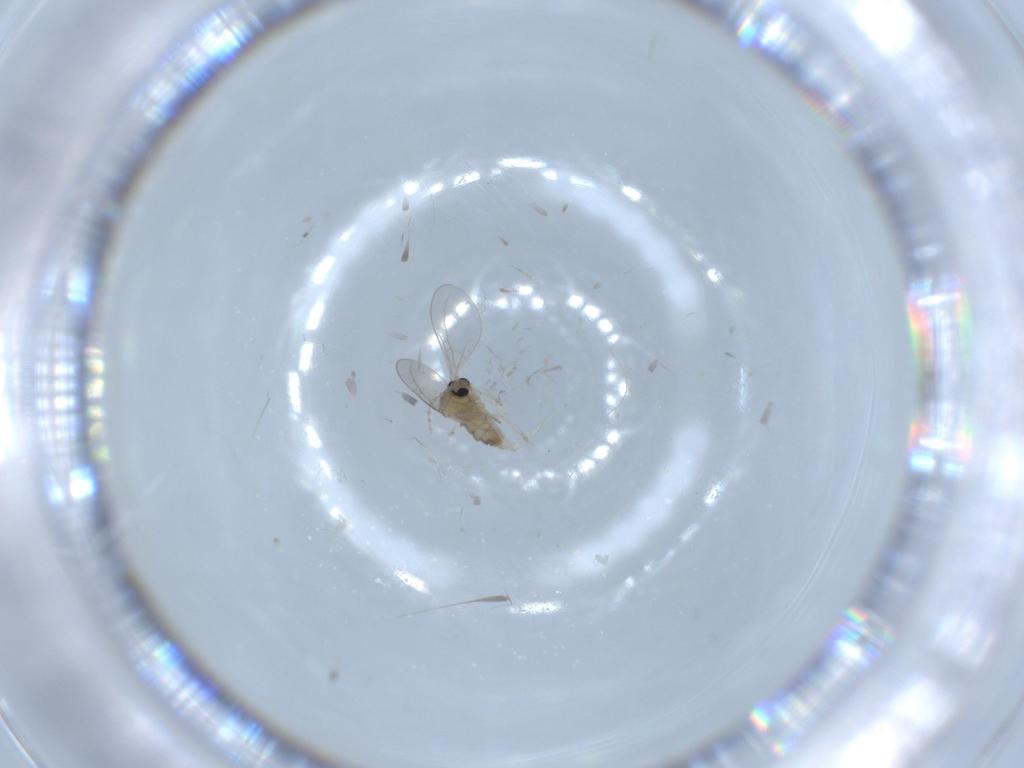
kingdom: Animalia
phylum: Arthropoda
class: Insecta
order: Diptera
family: Cecidomyiidae
